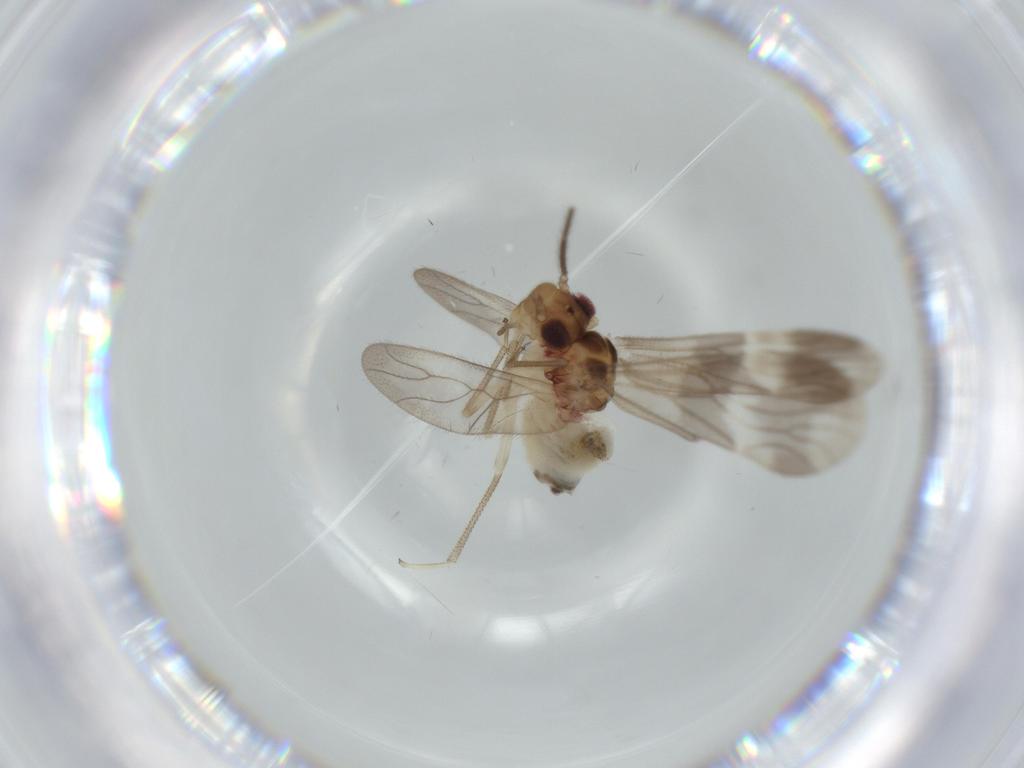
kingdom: Animalia
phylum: Arthropoda
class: Insecta
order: Psocodea
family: Amphipsocidae
